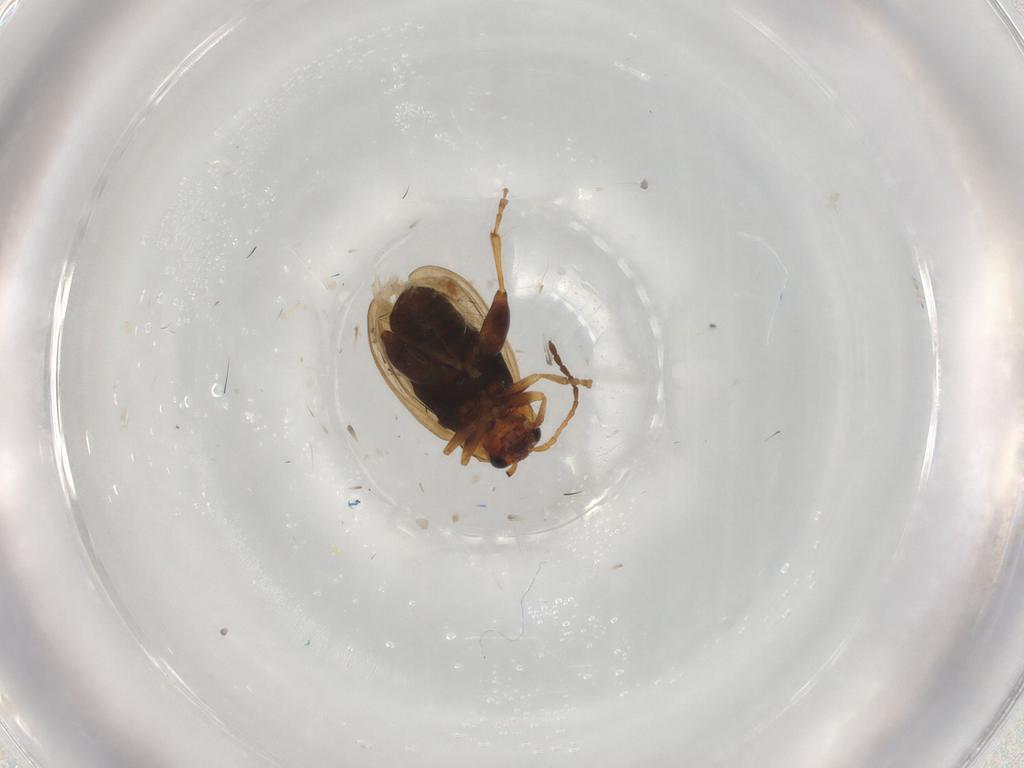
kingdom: Animalia
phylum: Arthropoda
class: Insecta
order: Coleoptera
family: Chrysomelidae
